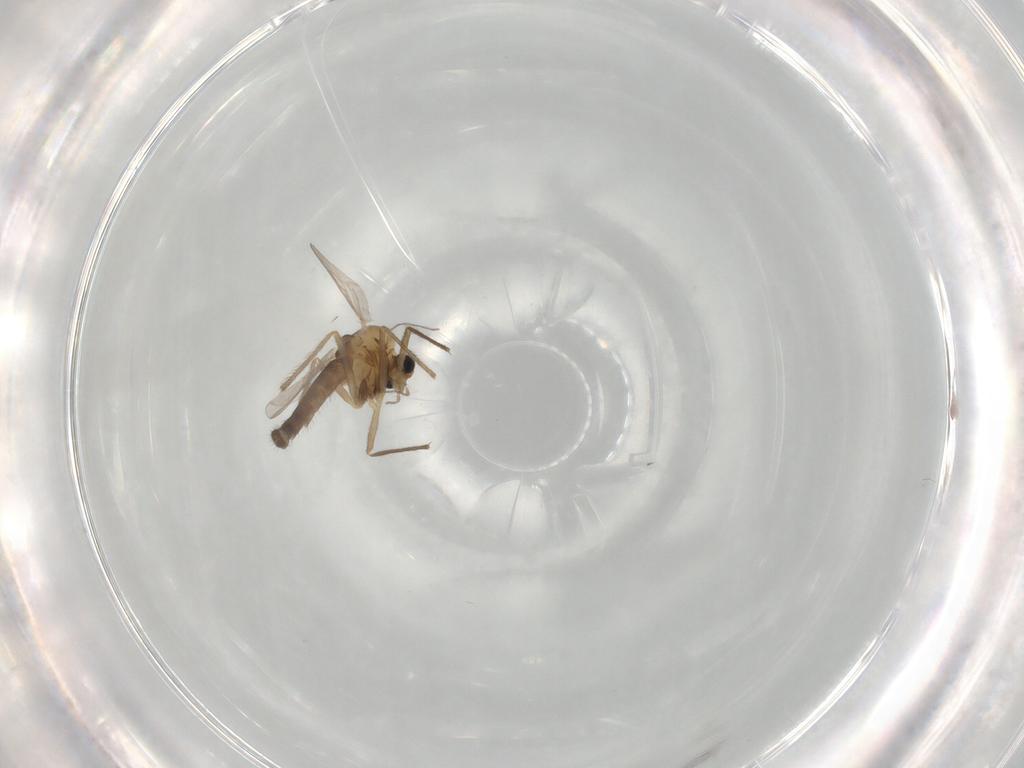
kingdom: Animalia
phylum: Arthropoda
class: Insecta
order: Diptera
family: Chironomidae
